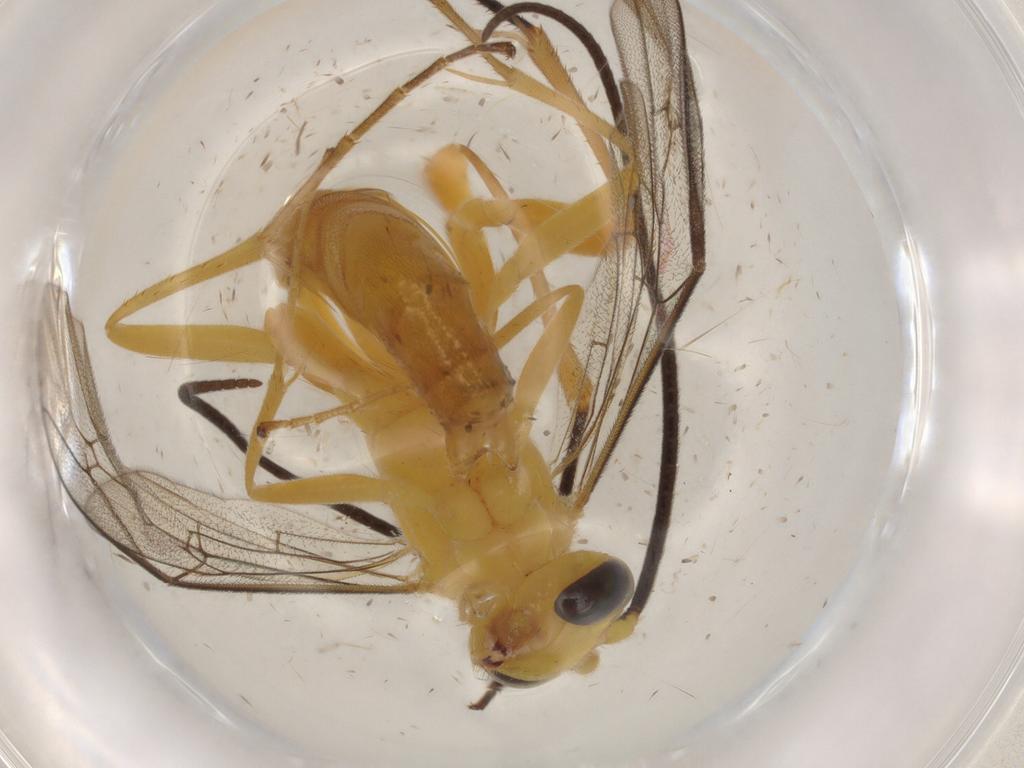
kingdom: Animalia
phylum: Arthropoda
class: Insecta
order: Hymenoptera
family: Ichneumonidae
